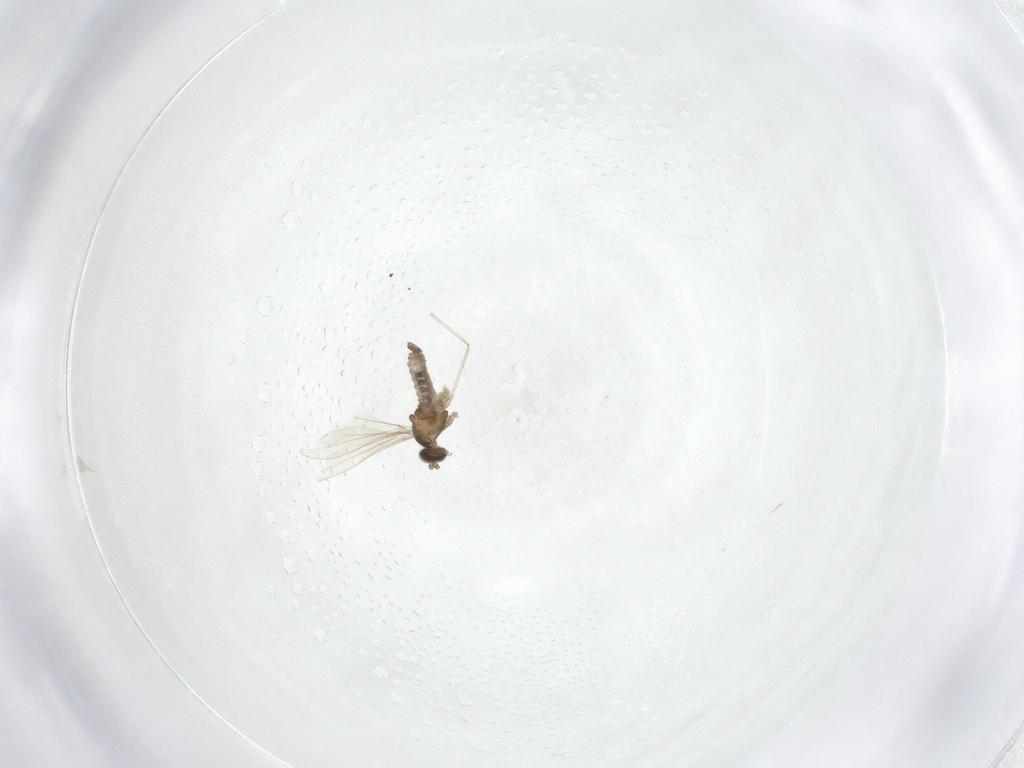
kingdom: Animalia
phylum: Arthropoda
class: Insecta
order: Diptera
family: Cecidomyiidae
